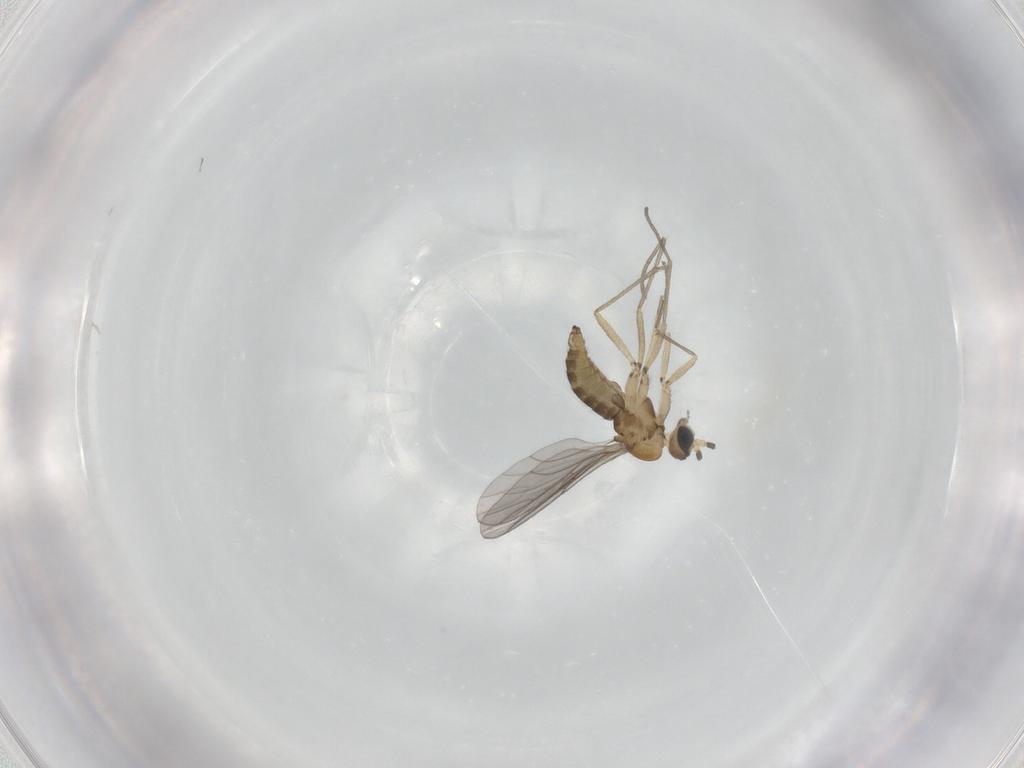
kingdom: Animalia
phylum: Arthropoda
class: Insecta
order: Diptera
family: Sciaridae
